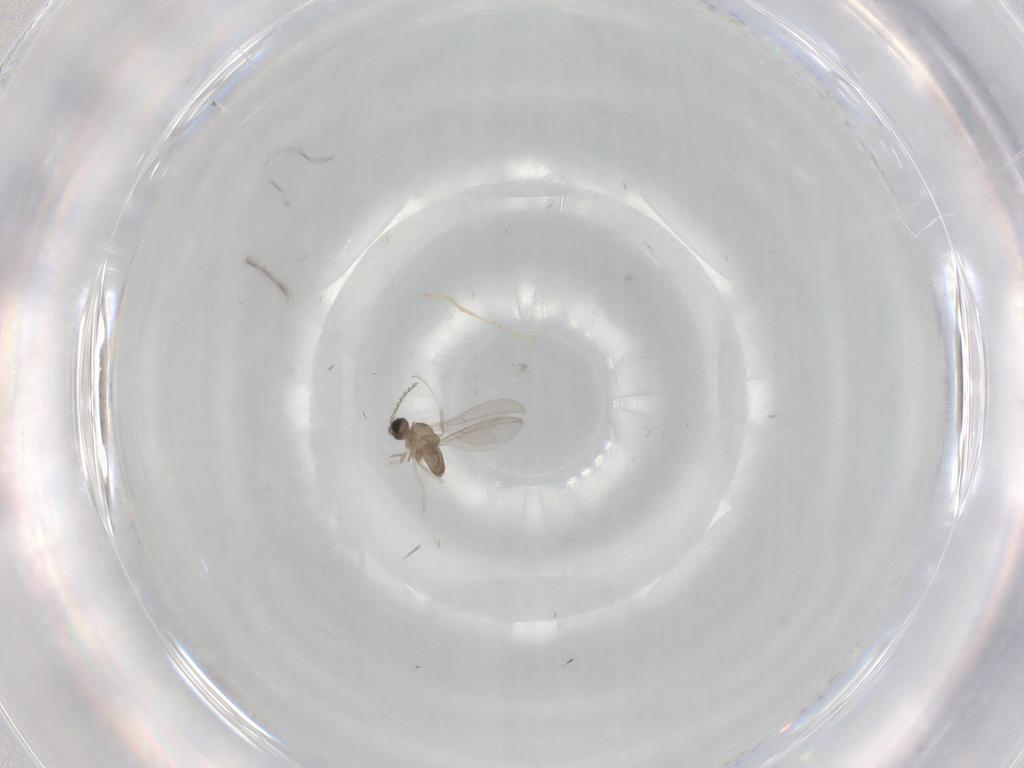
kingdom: Animalia
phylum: Arthropoda
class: Insecta
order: Diptera
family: Cecidomyiidae
